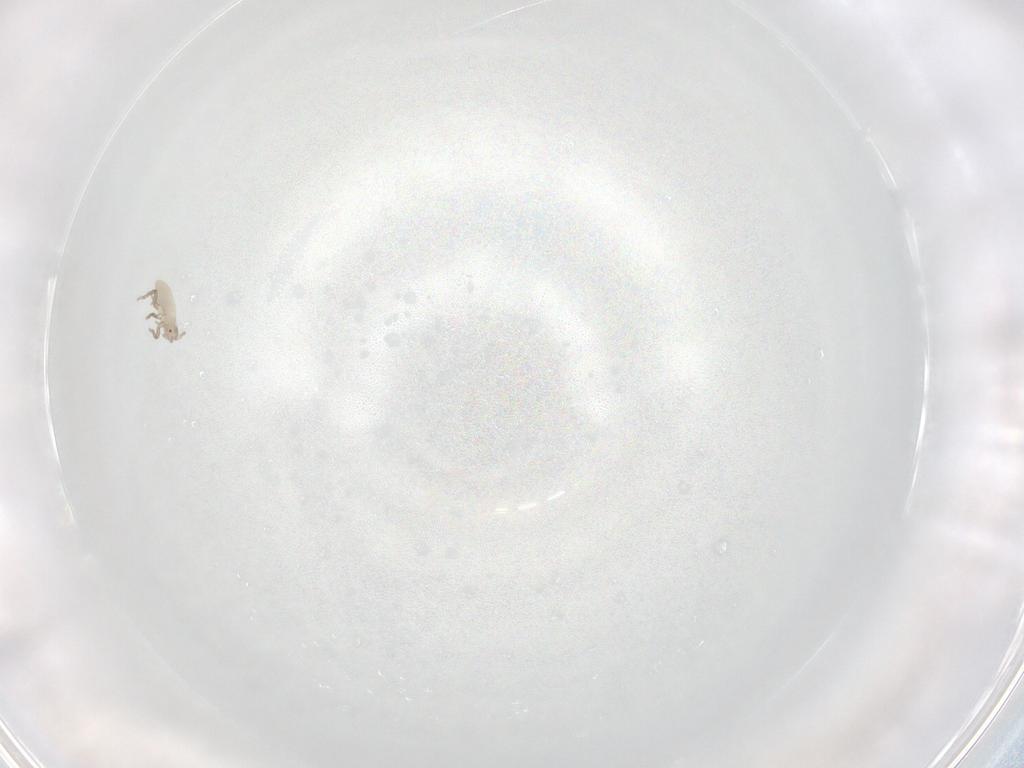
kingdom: Animalia
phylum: Arthropoda
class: Insecta
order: Hemiptera
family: Aphididae
